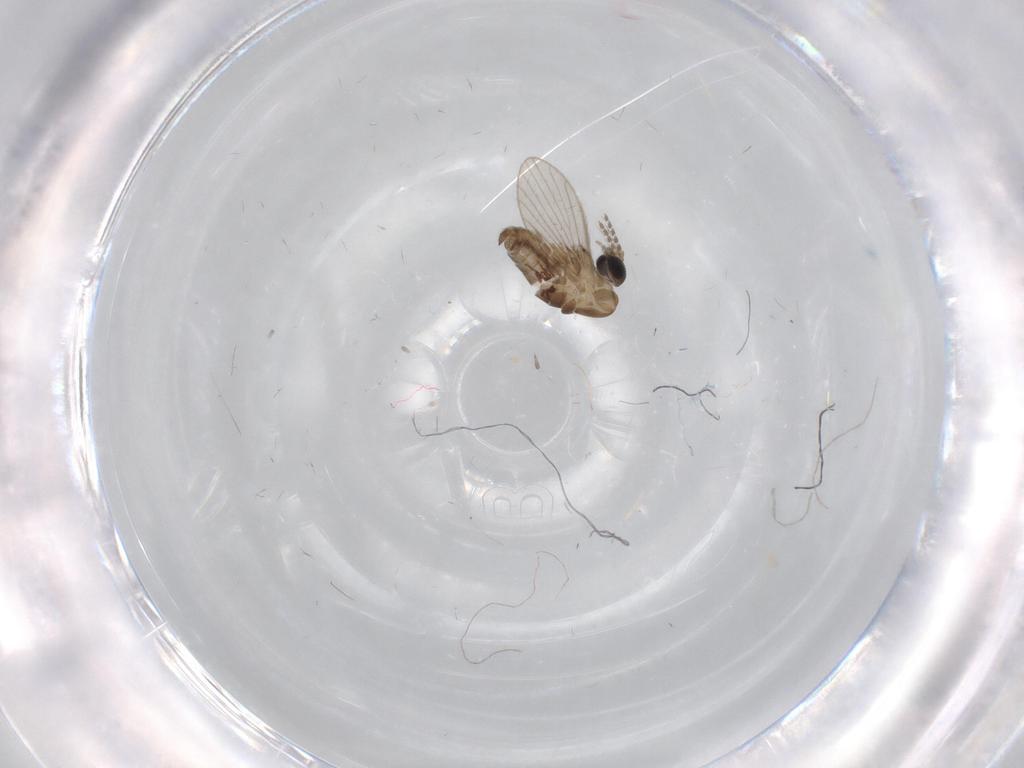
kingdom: Animalia
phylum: Arthropoda
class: Insecta
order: Diptera
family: Psychodidae
